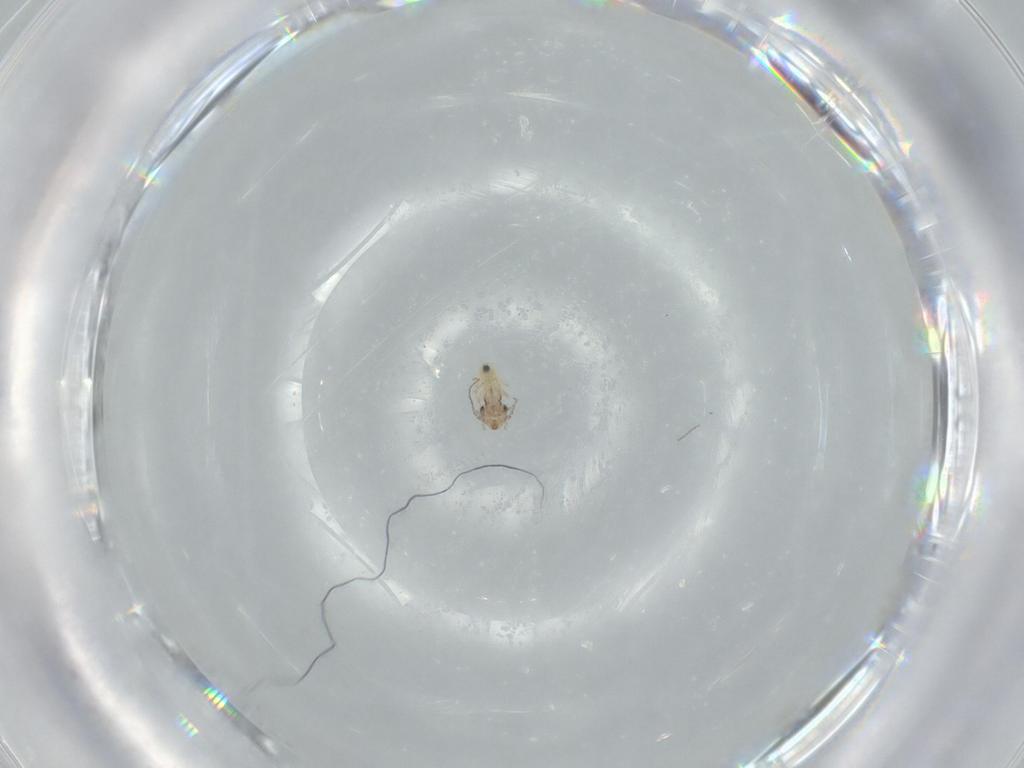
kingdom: Animalia
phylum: Arthropoda
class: Insecta
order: Psocodea
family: Lepidopsocidae
